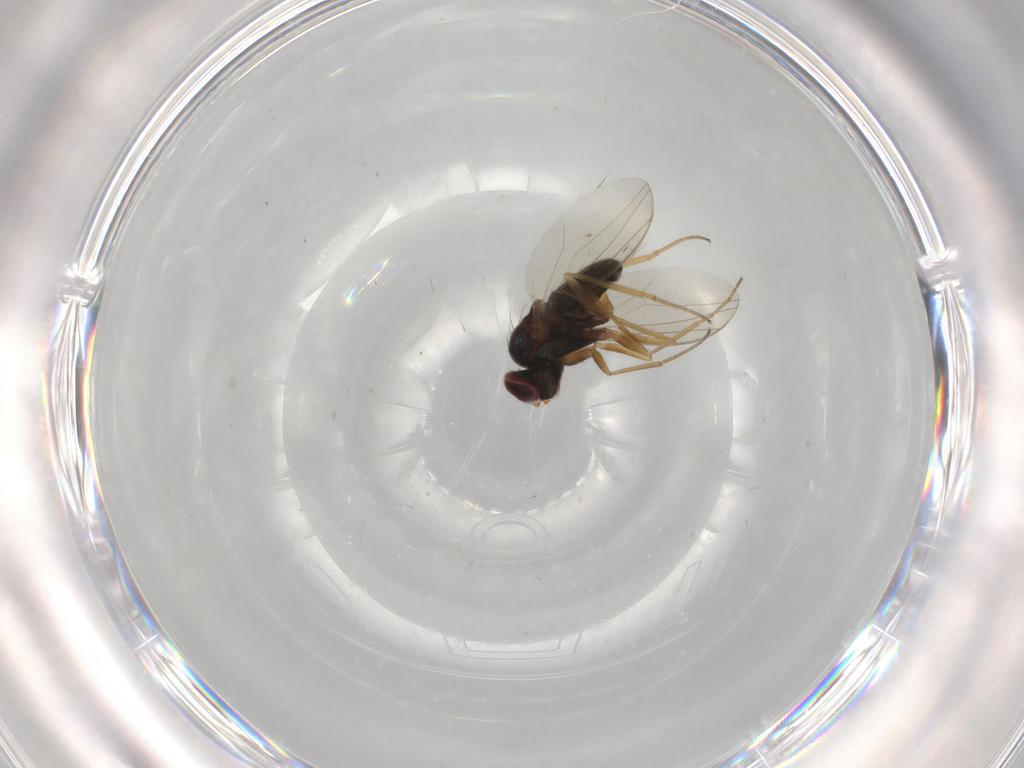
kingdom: Animalia
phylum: Arthropoda
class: Insecta
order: Diptera
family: Dolichopodidae
